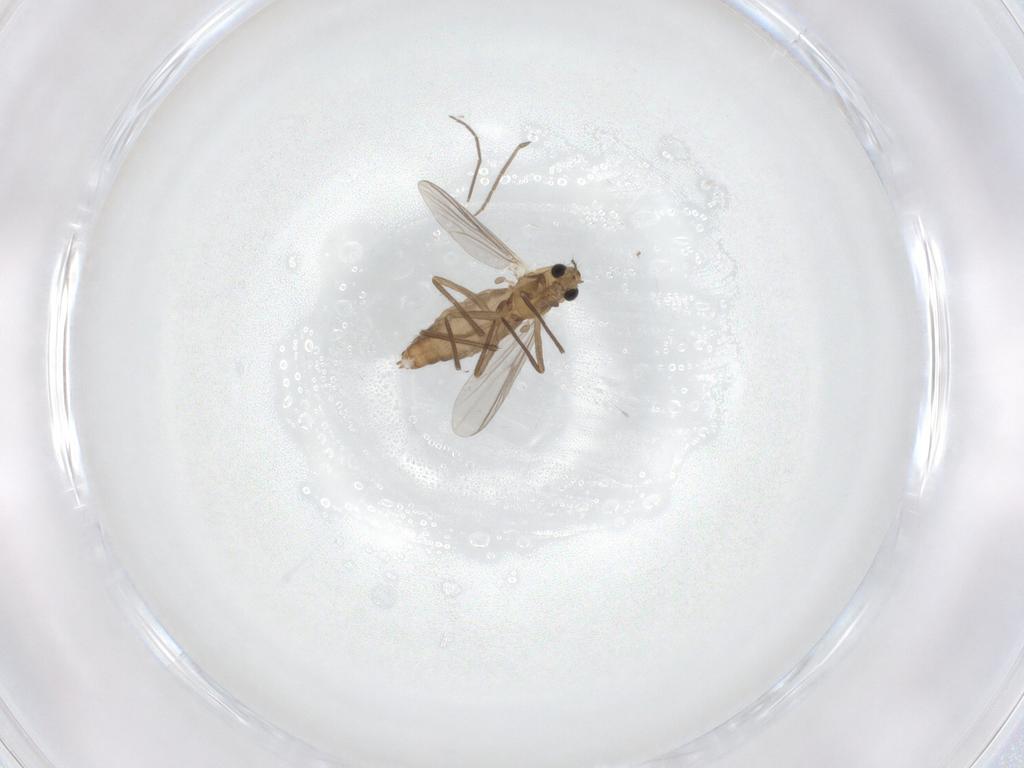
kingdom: Animalia
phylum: Arthropoda
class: Insecta
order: Diptera
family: Chironomidae
